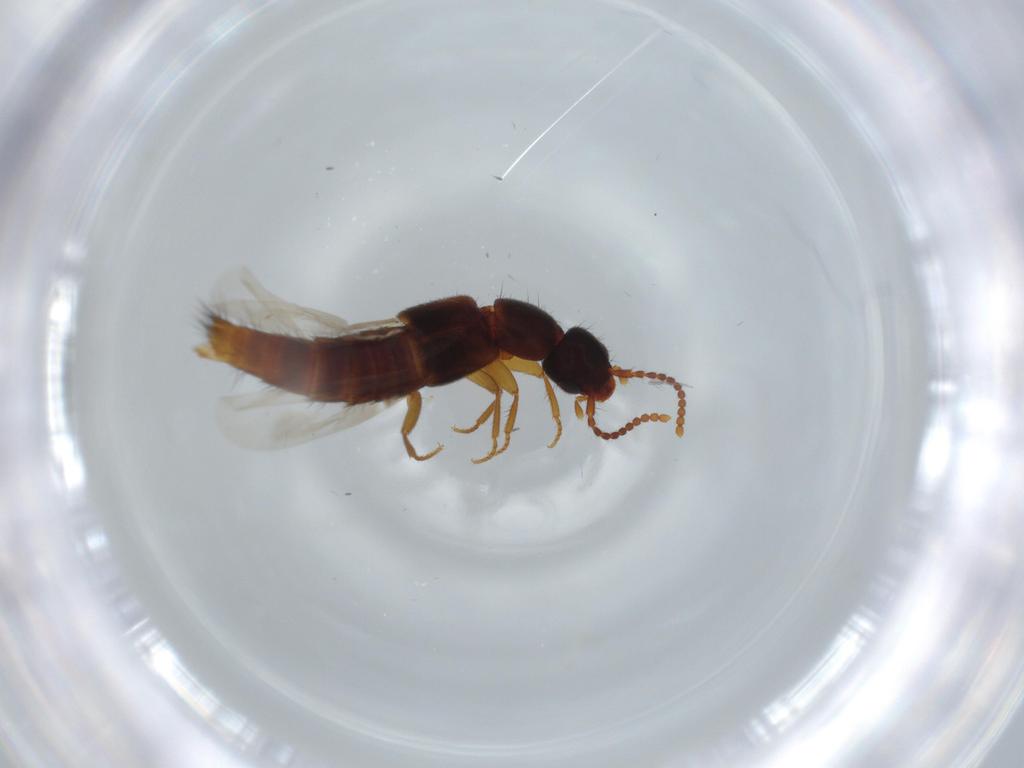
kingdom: Animalia
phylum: Arthropoda
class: Insecta
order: Coleoptera
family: Staphylinidae
